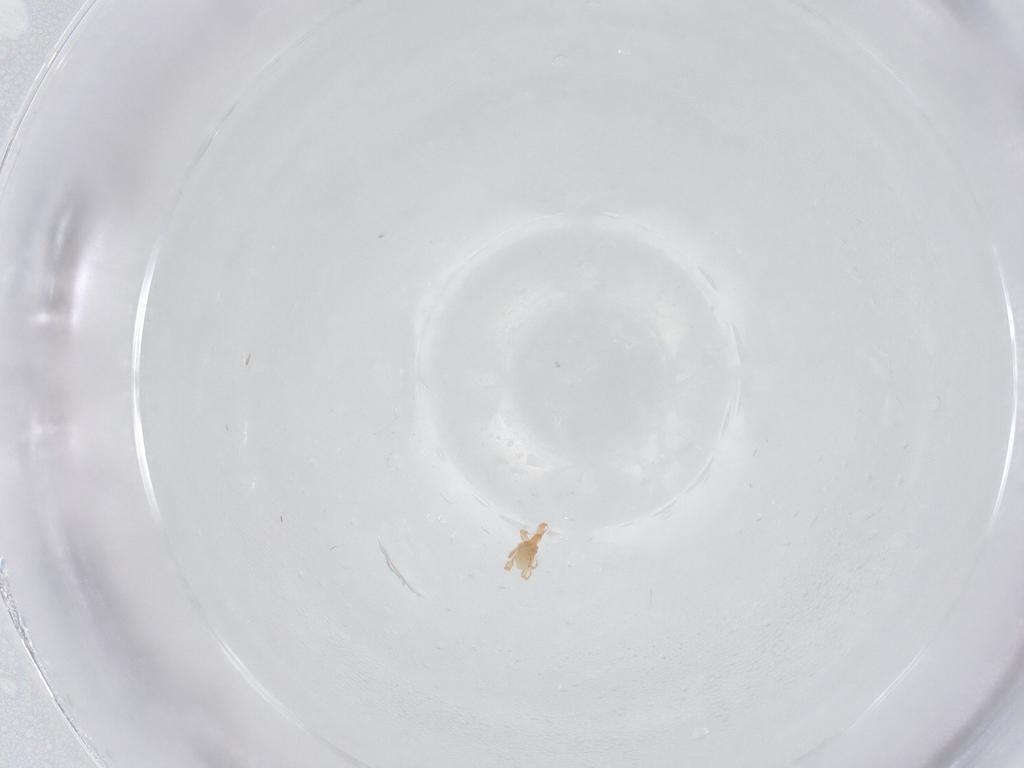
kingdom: Animalia
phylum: Arthropoda
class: Arachnida
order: Trombidiformes
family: Cunaxidae
